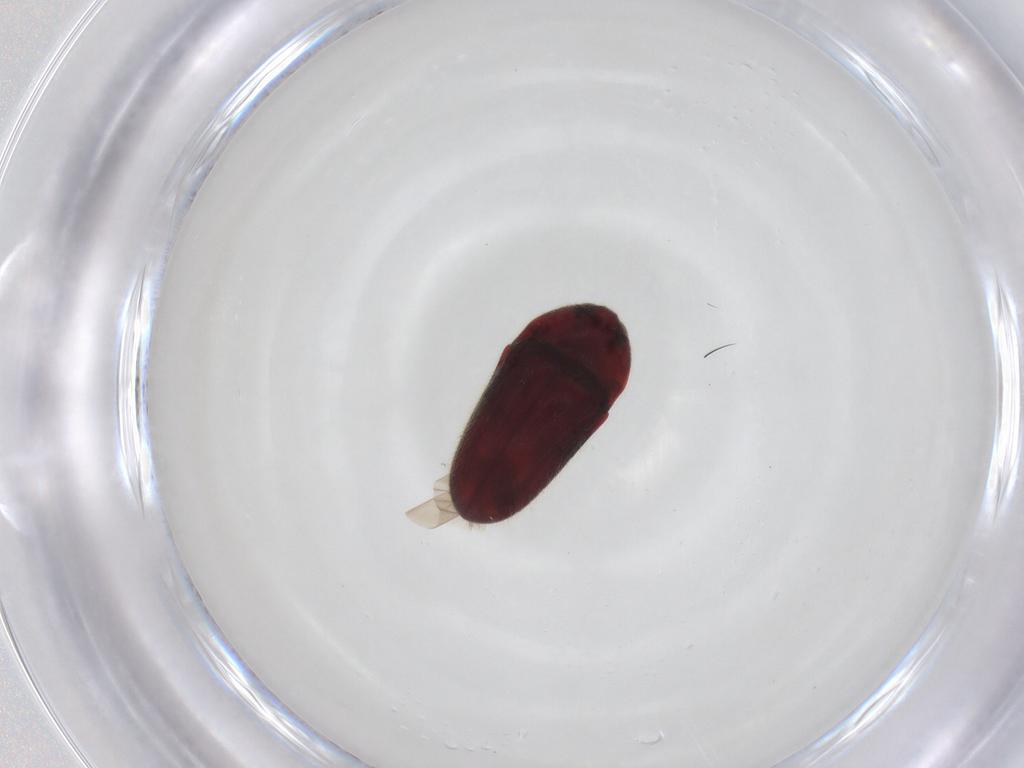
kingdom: Animalia
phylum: Arthropoda
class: Insecta
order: Coleoptera
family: Throscidae
